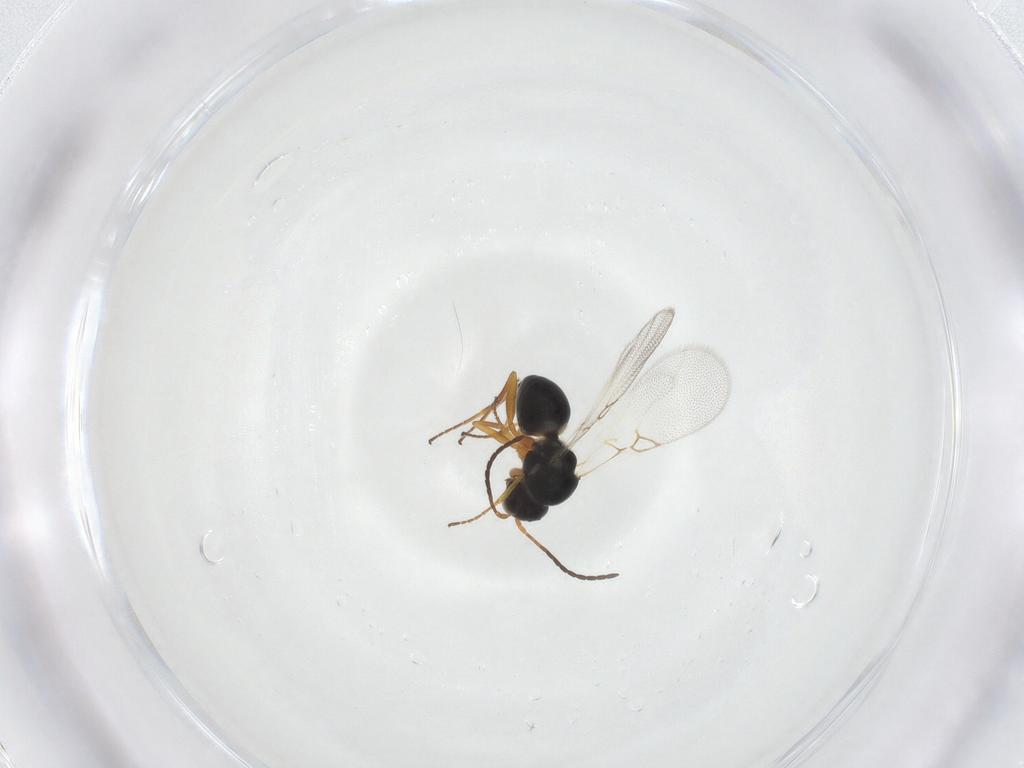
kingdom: Animalia
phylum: Arthropoda
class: Insecta
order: Hymenoptera
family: Figitidae
